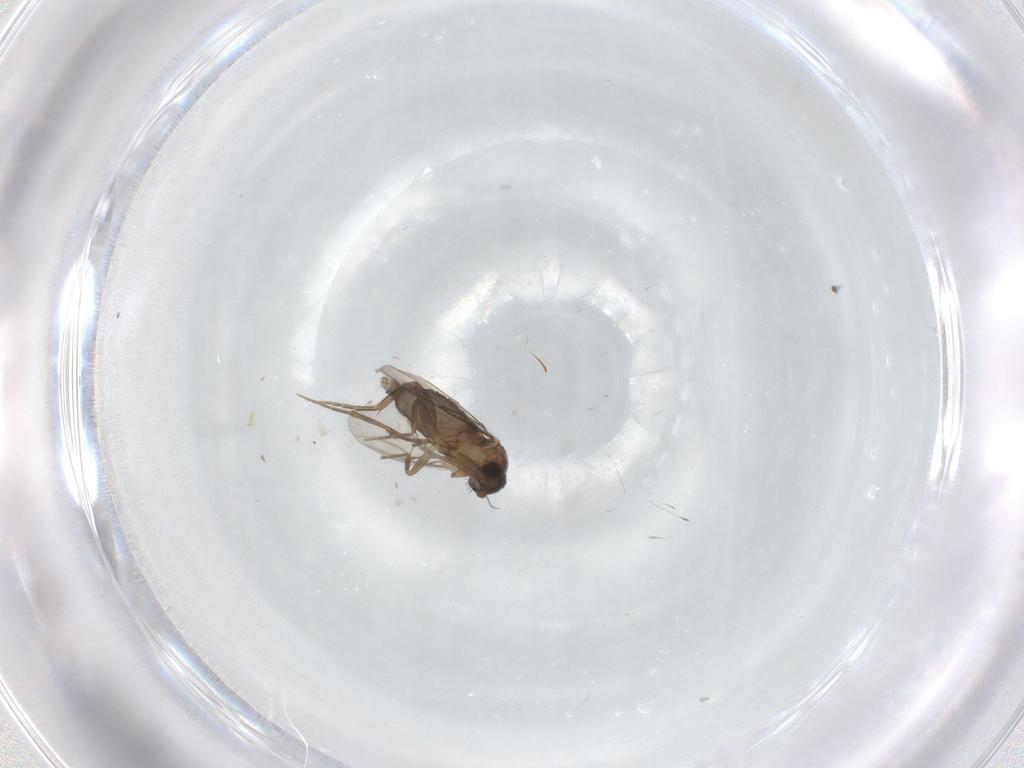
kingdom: Animalia
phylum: Arthropoda
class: Insecta
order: Diptera
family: Phoridae
